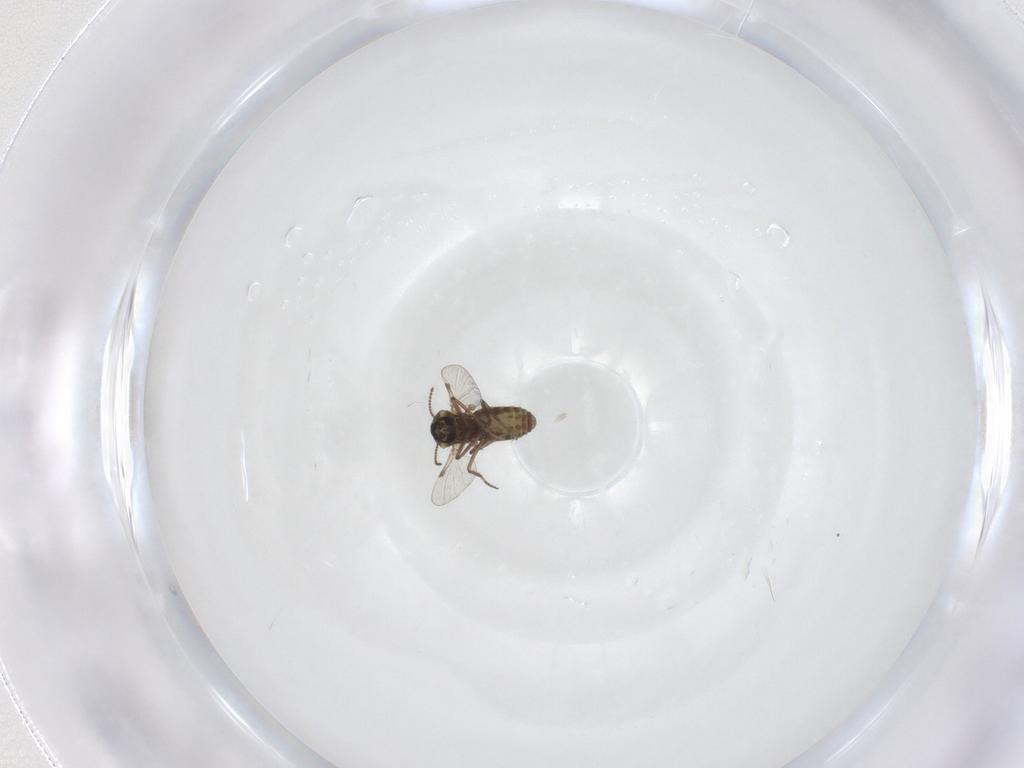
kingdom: Animalia
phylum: Arthropoda
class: Insecta
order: Diptera
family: Ceratopogonidae
